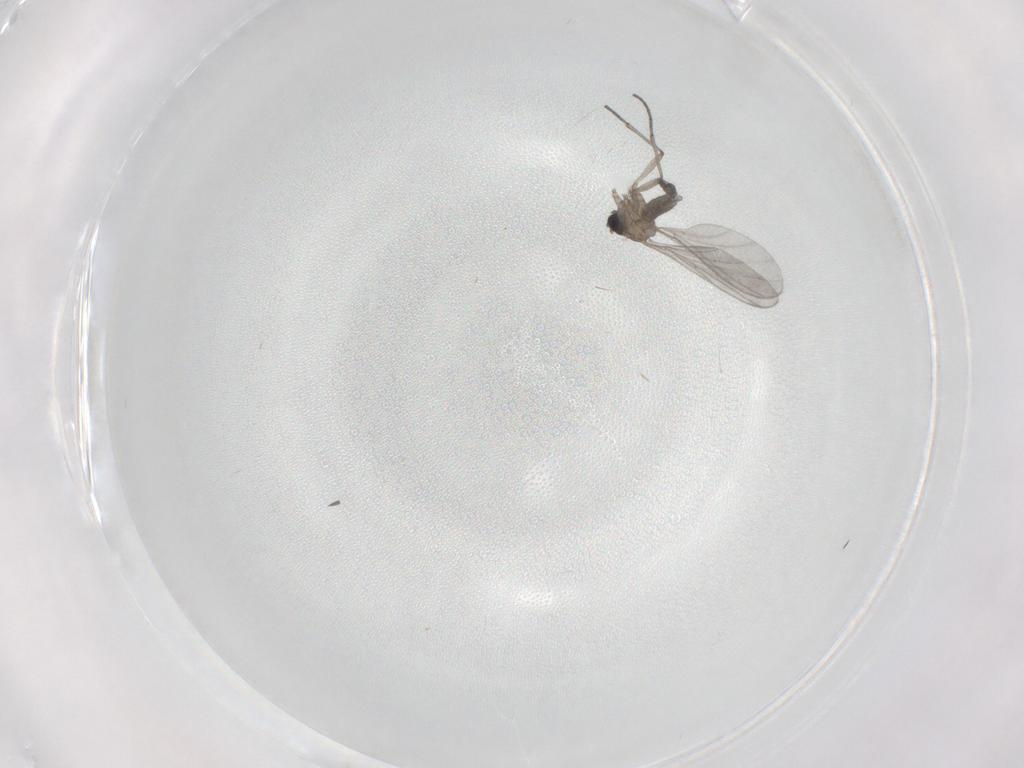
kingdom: Animalia
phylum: Arthropoda
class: Insecta
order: Diptera
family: Sciaridae
